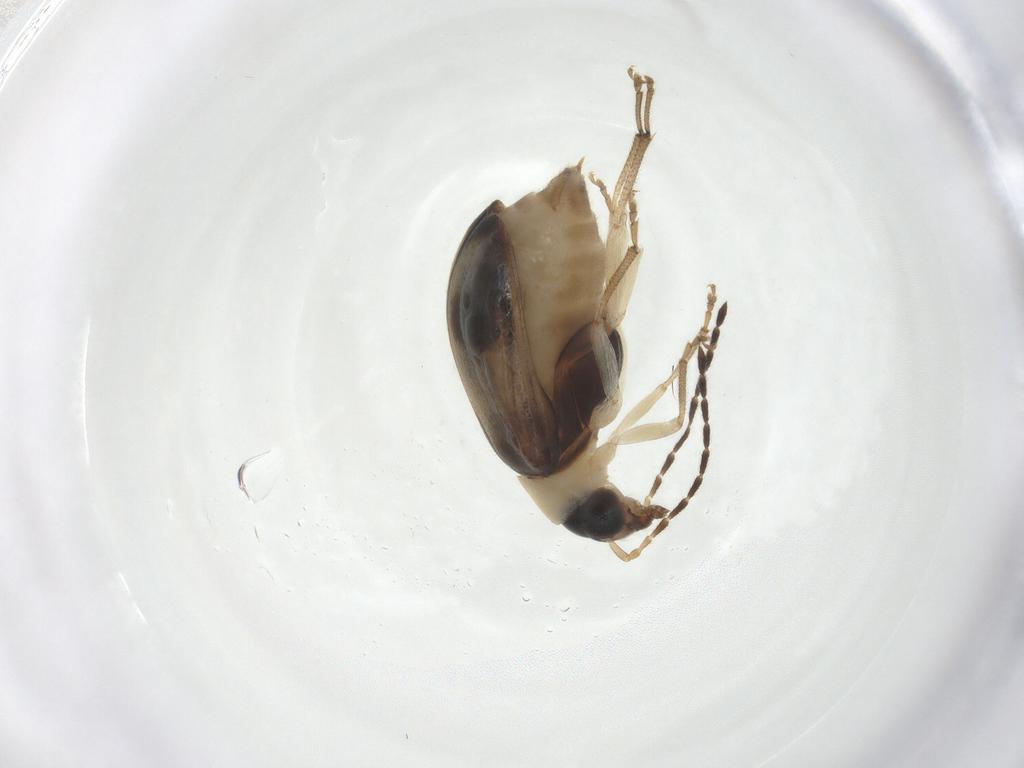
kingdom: Animalia
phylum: Arthropoda
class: Insecta
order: Coleoptera
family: Chrysomelidae
